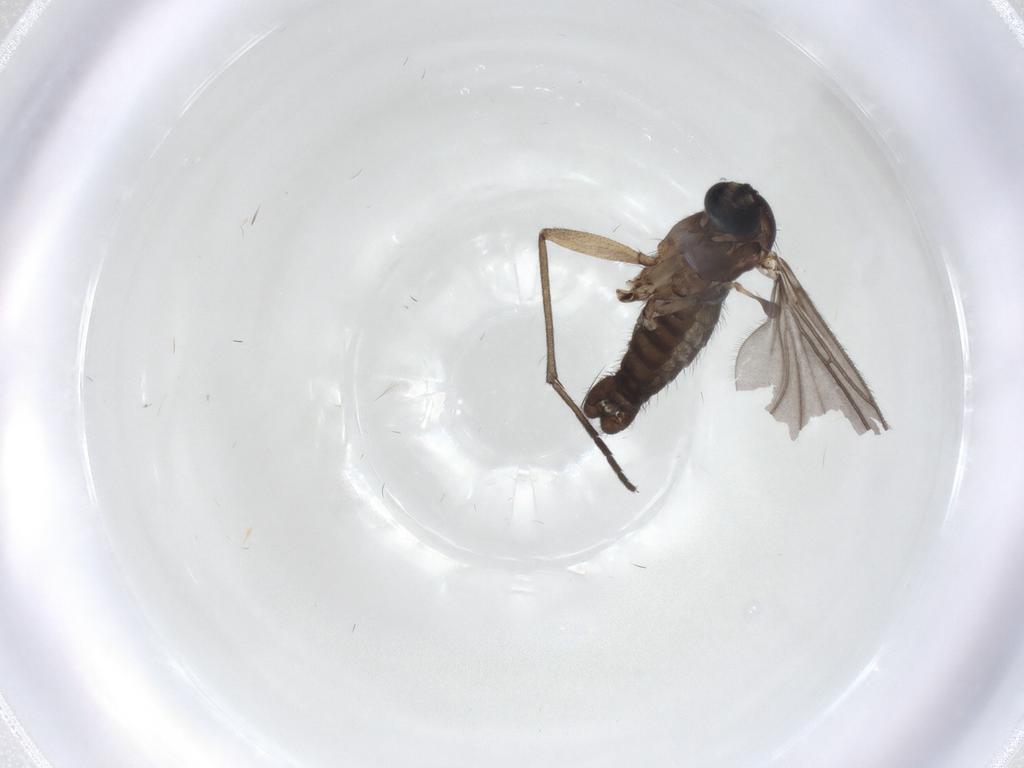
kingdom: Animalia
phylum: Arthropoda
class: Insecta
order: Diptera
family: Sciaridae
